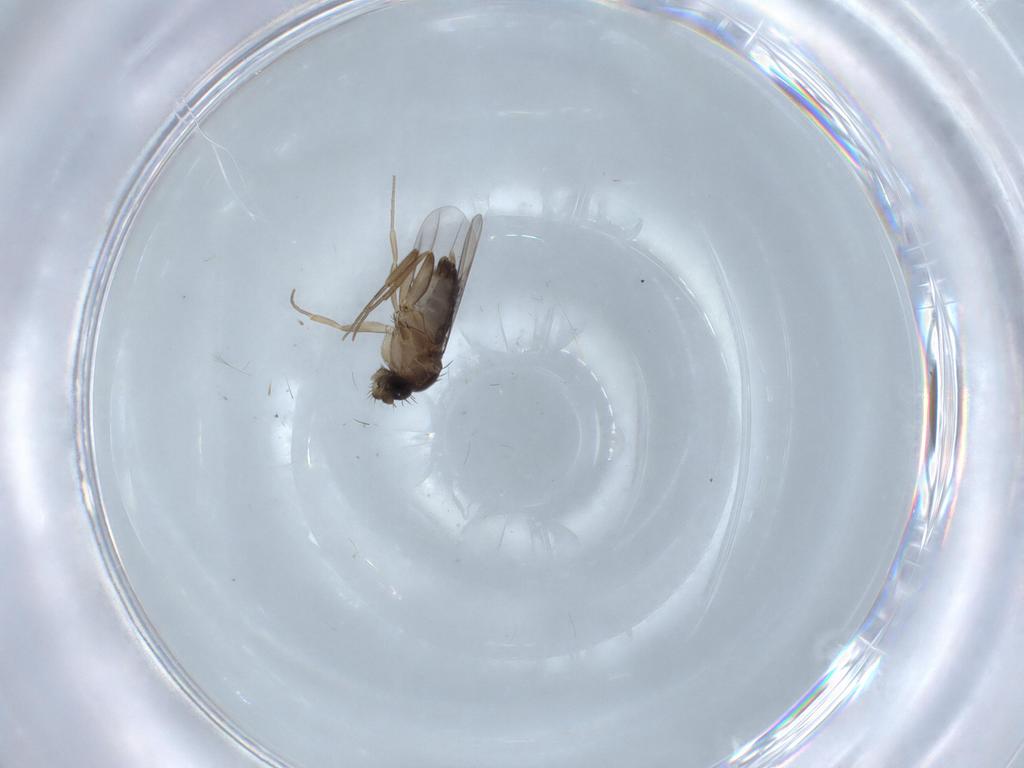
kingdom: Animalia
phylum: Arthropoda
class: Insecta
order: Diptera
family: Phoridae
